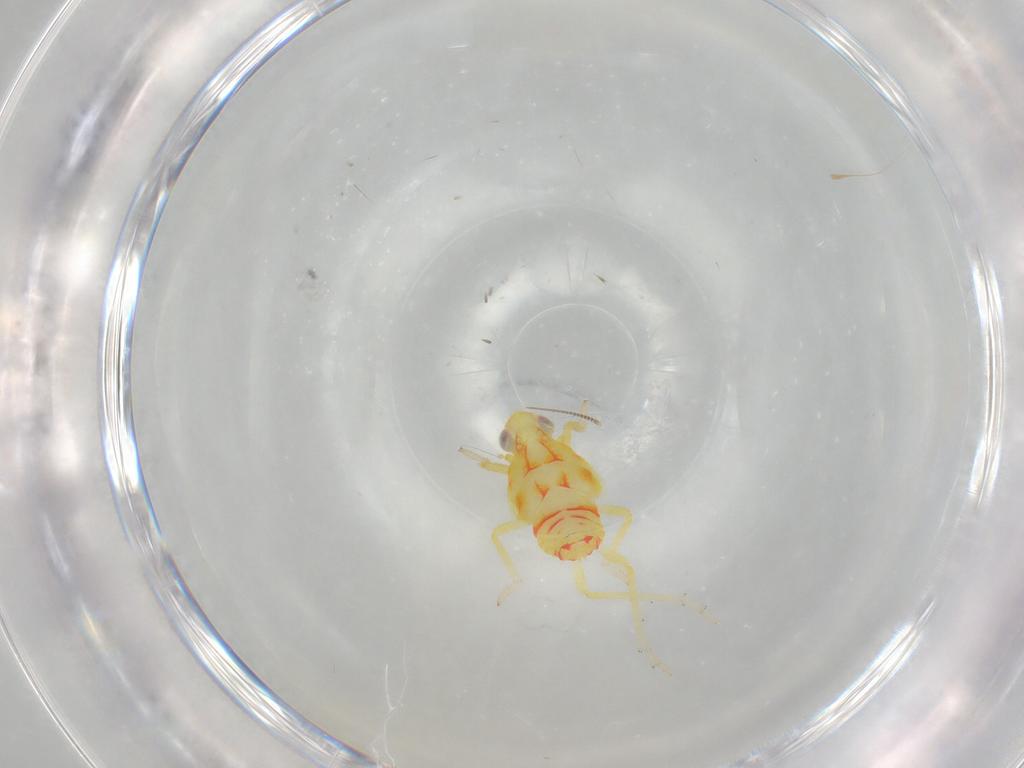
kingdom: Animalia
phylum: Arthropoda
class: Insecta
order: Hemiptera
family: Tropiduchidae
